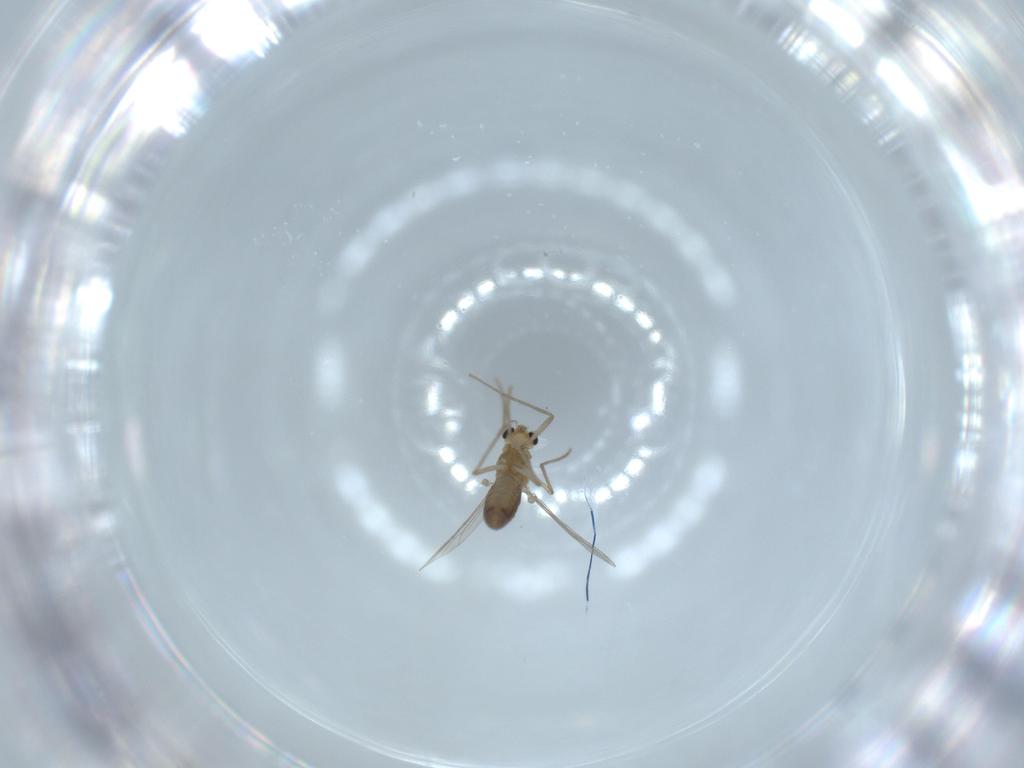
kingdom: Animalia
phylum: Arthropoda
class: Insecta
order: Diptera
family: Chironomidae
